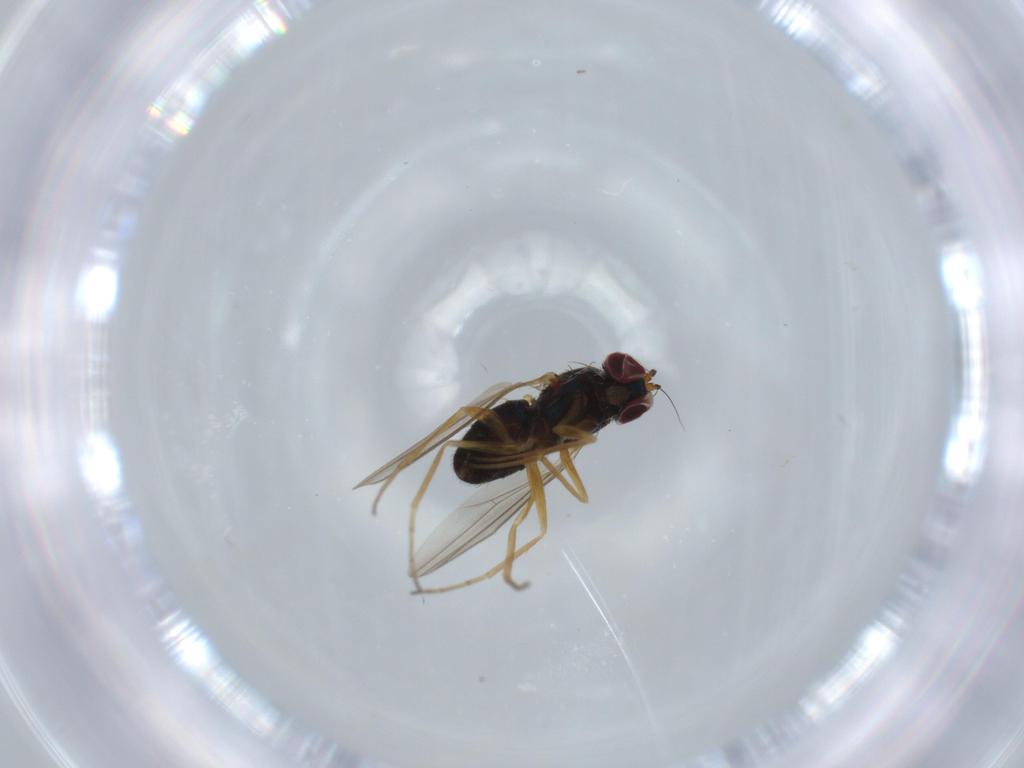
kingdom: Animalia
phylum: Arthropoda
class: Insecta
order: Diptera
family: Dolichopodidae
